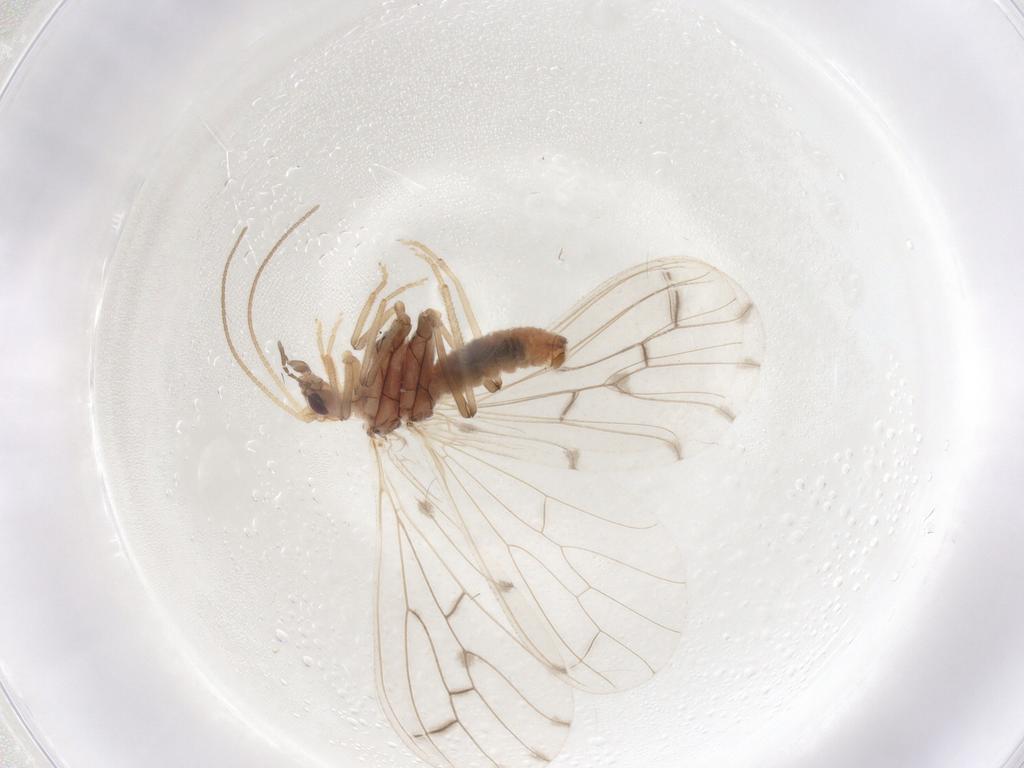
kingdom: Animalia
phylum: Arthropoda
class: Insecta
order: Neuroptera
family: Coniopterygidae
